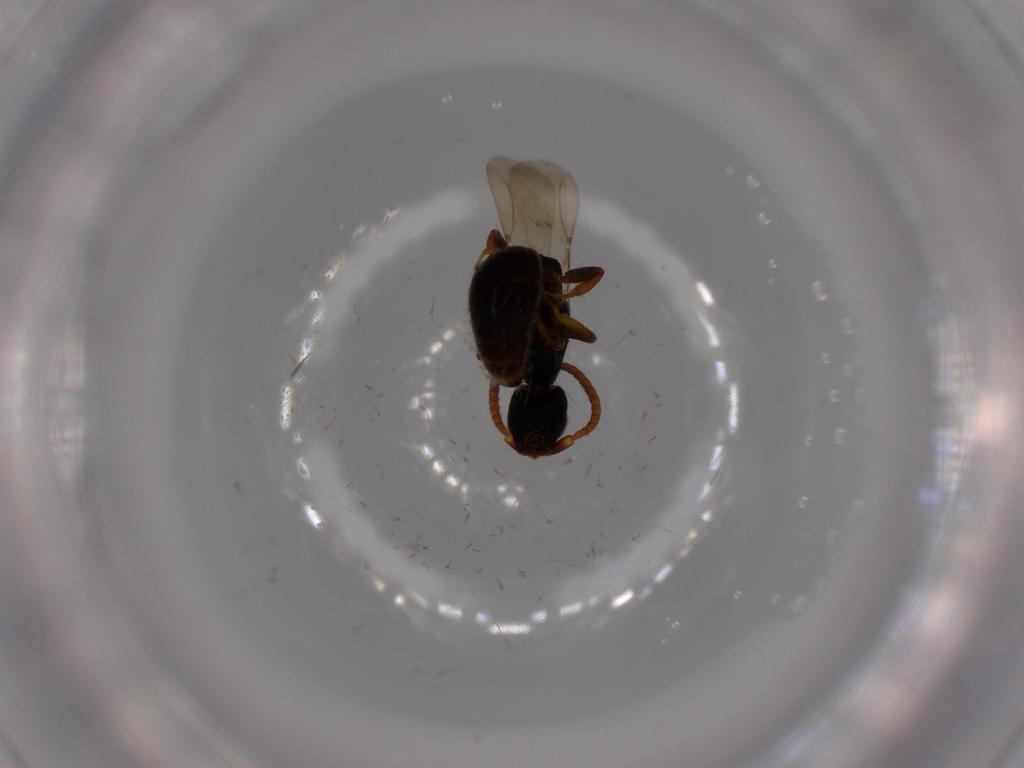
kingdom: Animalia
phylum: Arthropoda
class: Insecta
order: Hymenoptera
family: Bethylidae
